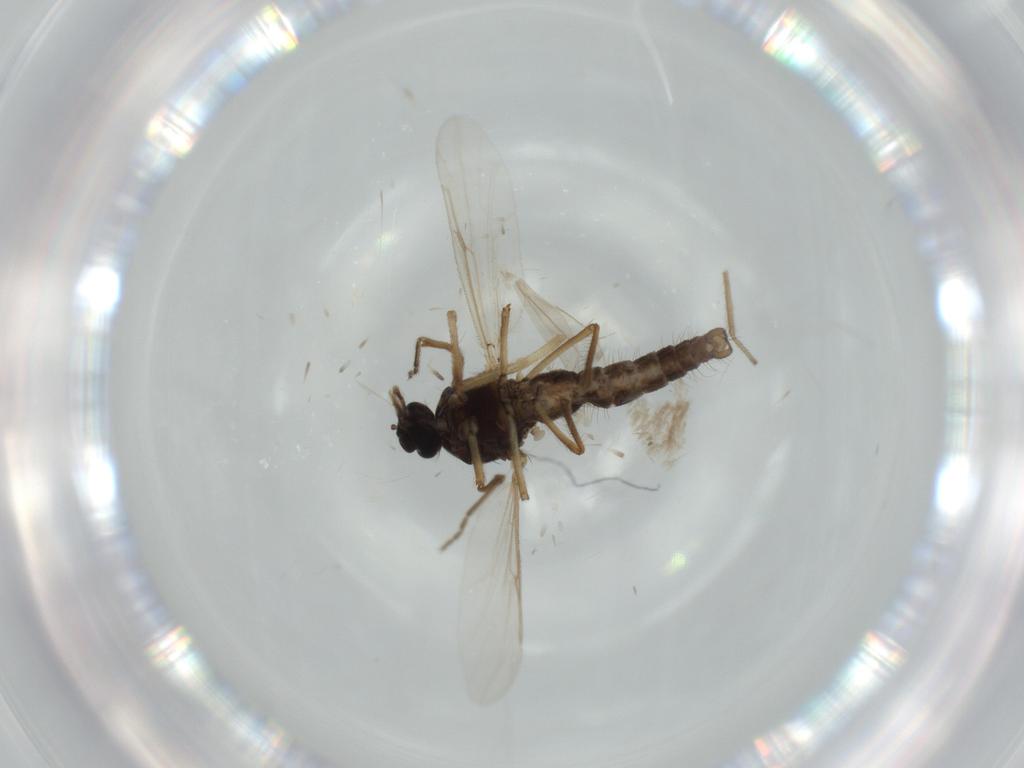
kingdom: Animalia
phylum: Arthropoda
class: Insecta
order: Diptera
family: Ceratopogonidae
